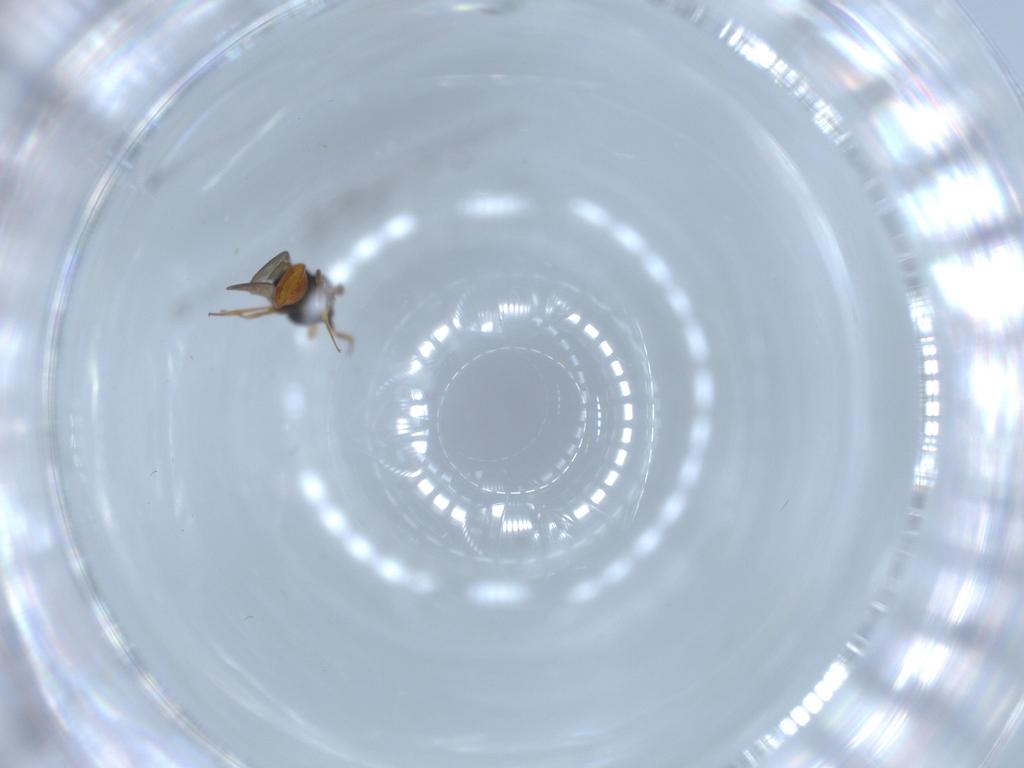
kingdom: Animalia
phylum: Arthropoda
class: Insecta
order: Hymenoptera
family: Scelionidae
